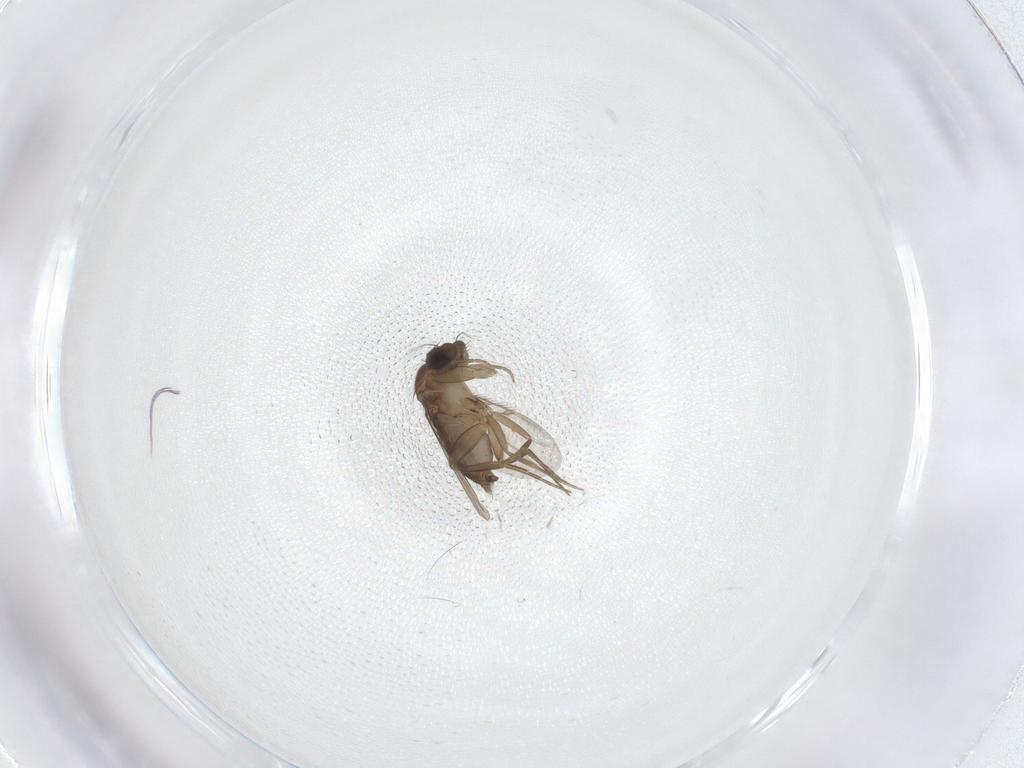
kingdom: Animalia
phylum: Arthropoda
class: Insecta
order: Diptera
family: Phoridae
